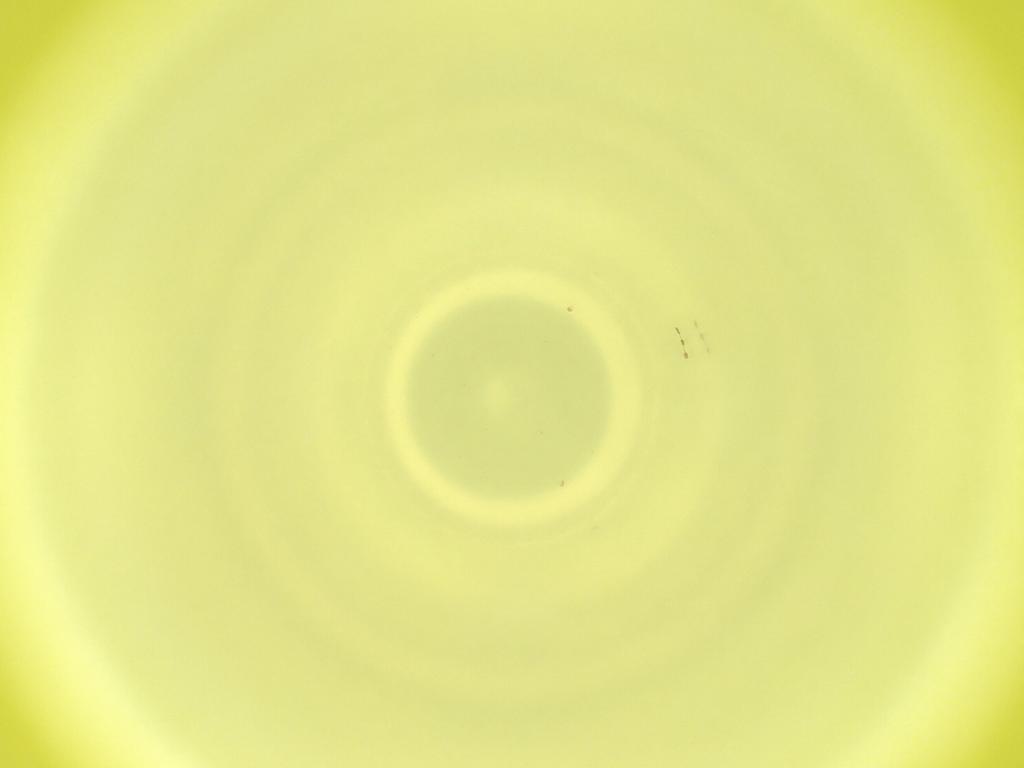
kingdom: Animalia
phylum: Arthropoda
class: Insecta
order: Diptera
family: Cecidomyiidae
